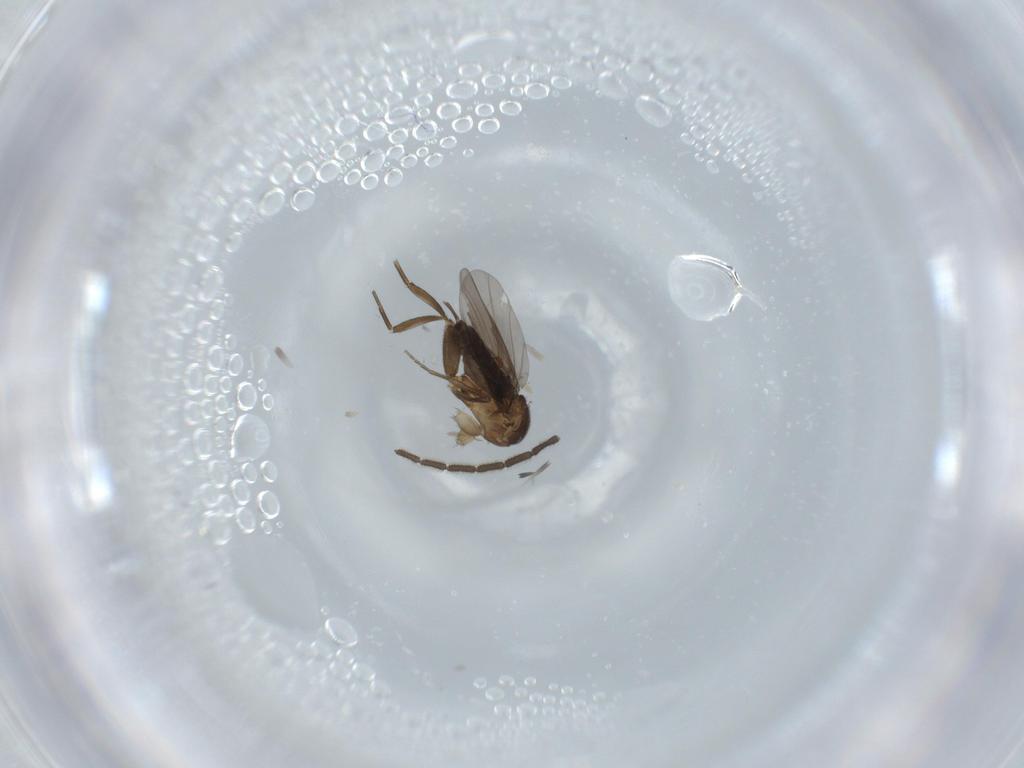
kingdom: Animalia
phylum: Arthropoda
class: Insecta
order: Diptera
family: Phoridae
